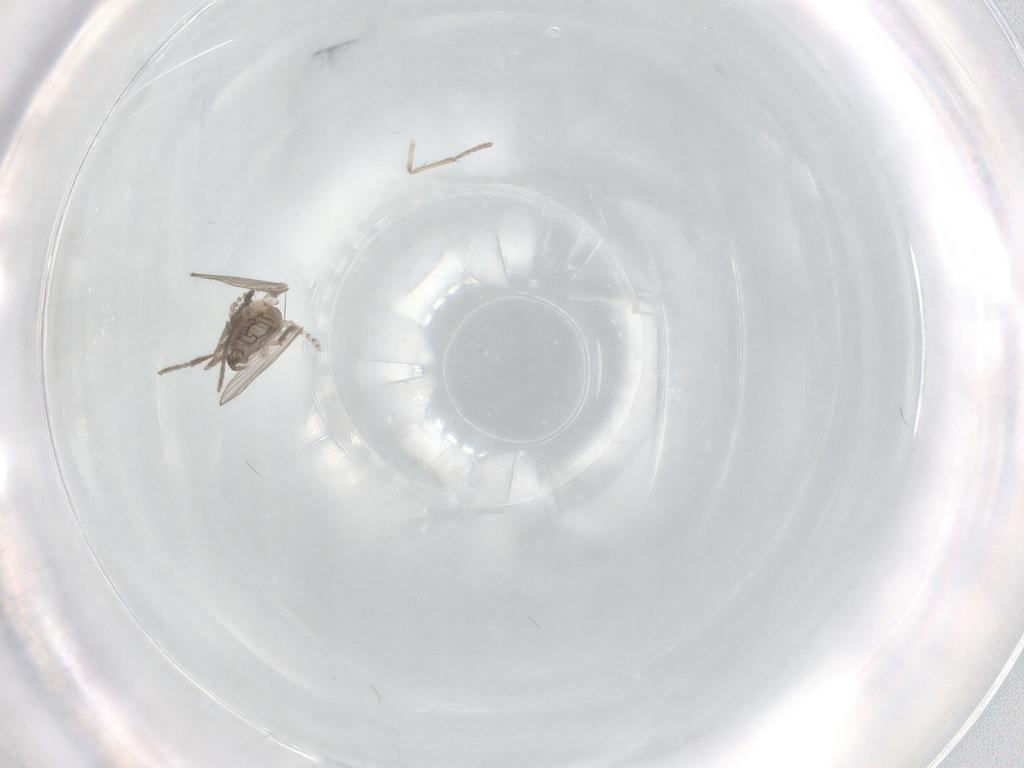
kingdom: Animalia
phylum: Arthropoda
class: Insecta
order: Diptera
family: Psychodidae
